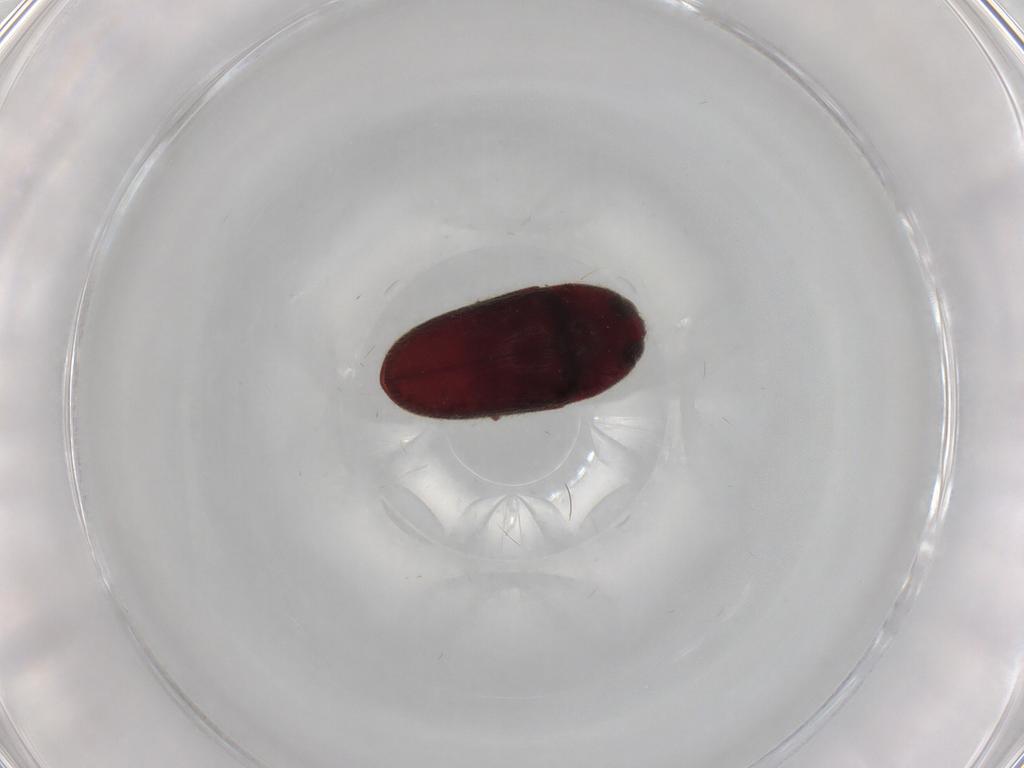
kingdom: Animalia
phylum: Arthropoda
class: Insecta
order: Coleoptera
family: Throscidae
